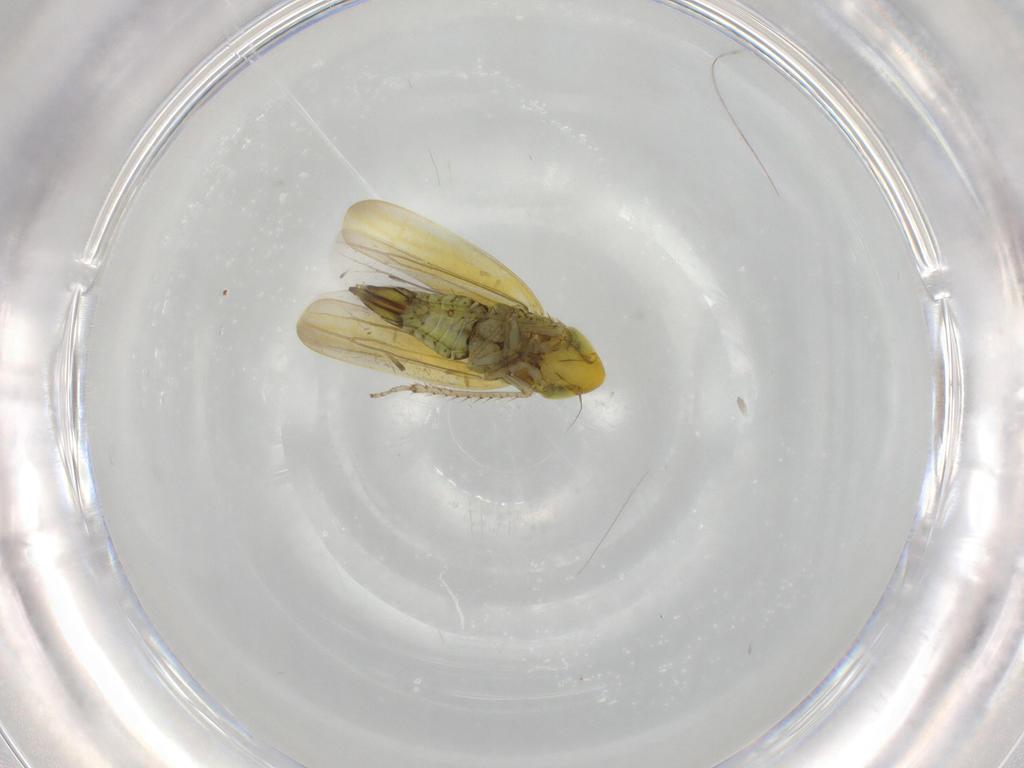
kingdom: Animalia
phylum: Arthropoda
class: Insecta
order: Hemiptera
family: Cicadellidae
